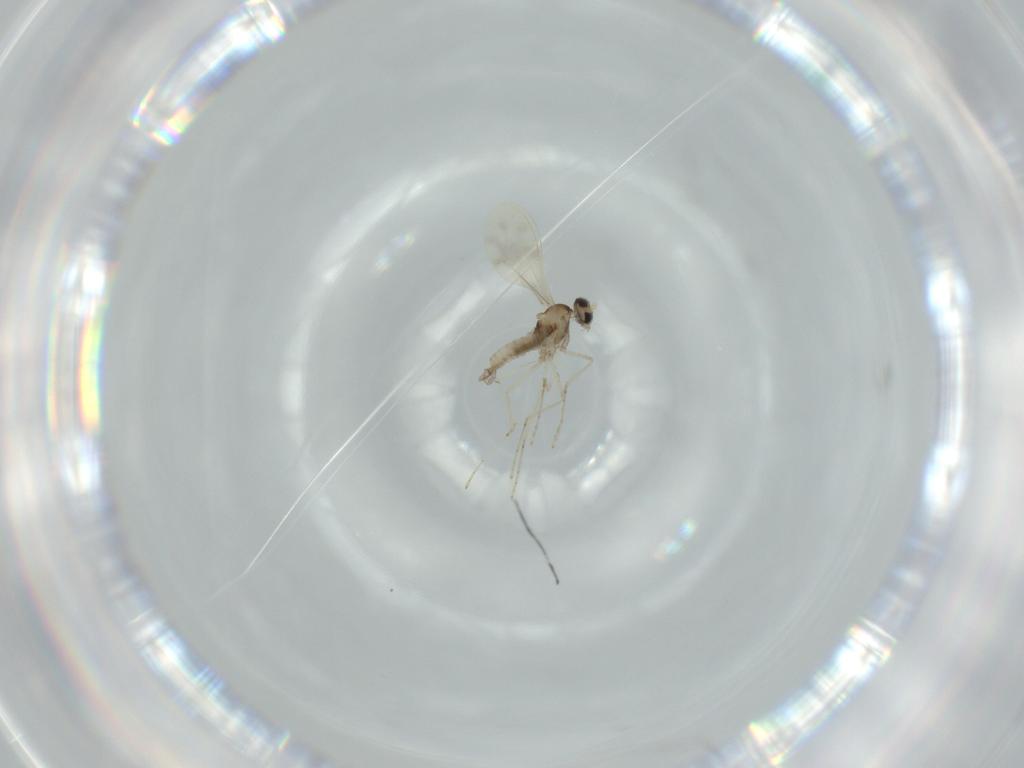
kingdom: Animalia
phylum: Arthropoda
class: Insecta
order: Diptera
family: Cecidomyiidae
